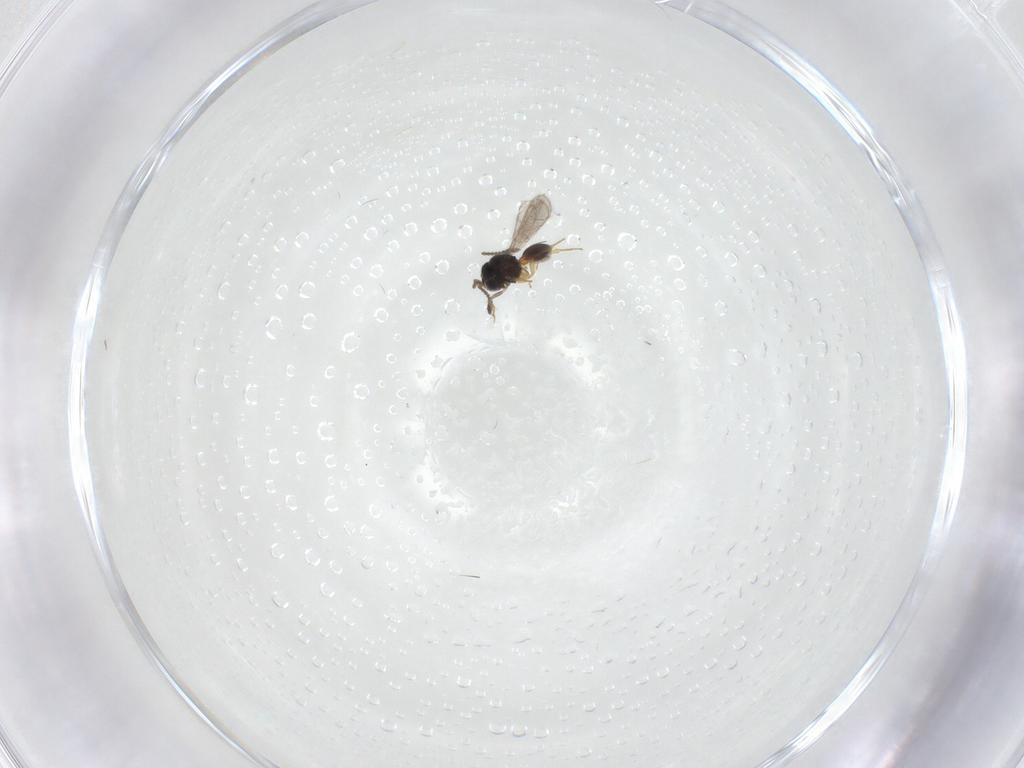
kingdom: Animalia
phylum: Arthropoda
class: Insecta
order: Hymenoptera
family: Scelionidae
